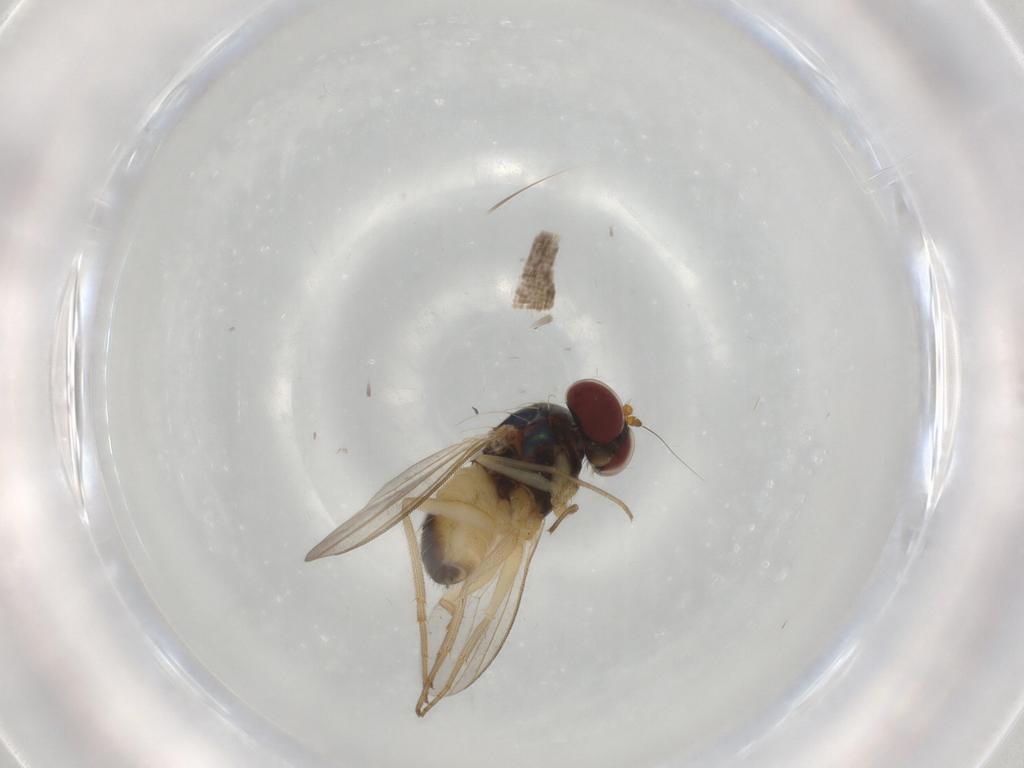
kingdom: Animalia
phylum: Arthropoda
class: Insecta
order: Diptera
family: Dolichopodidae
